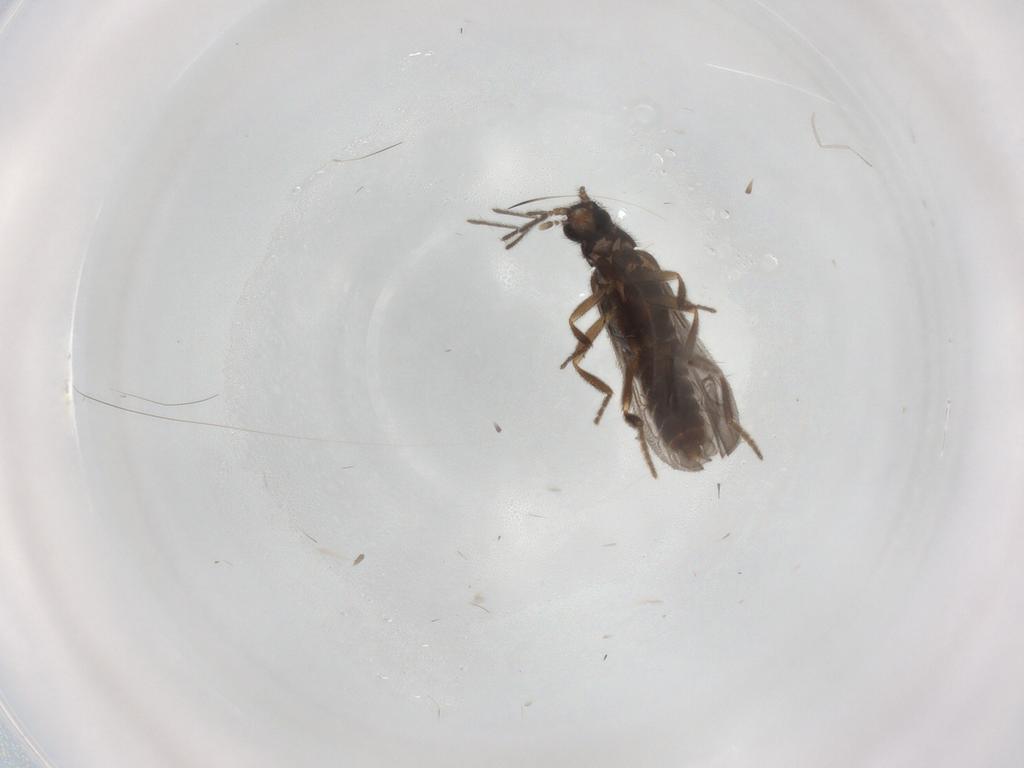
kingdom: Animalia
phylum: Arthropoda
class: Insecta
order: Coleoptera
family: Phengodidae
